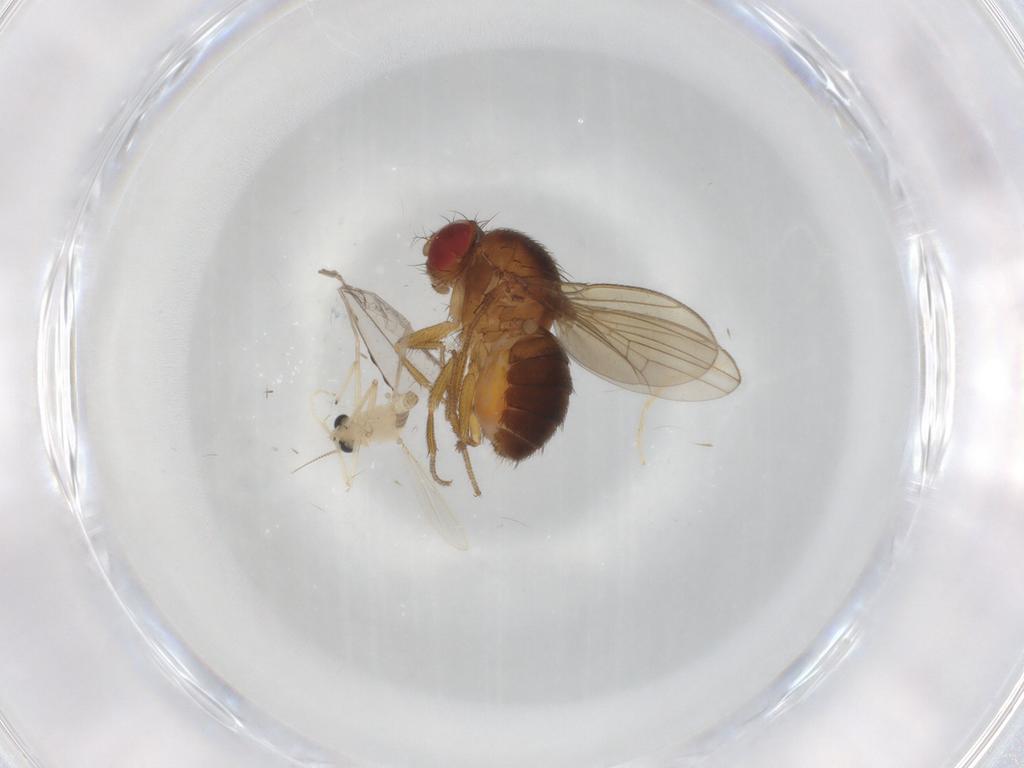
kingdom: Animalia
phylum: Arthropoda
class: Insecta
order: Diptera
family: Drosophilidae
